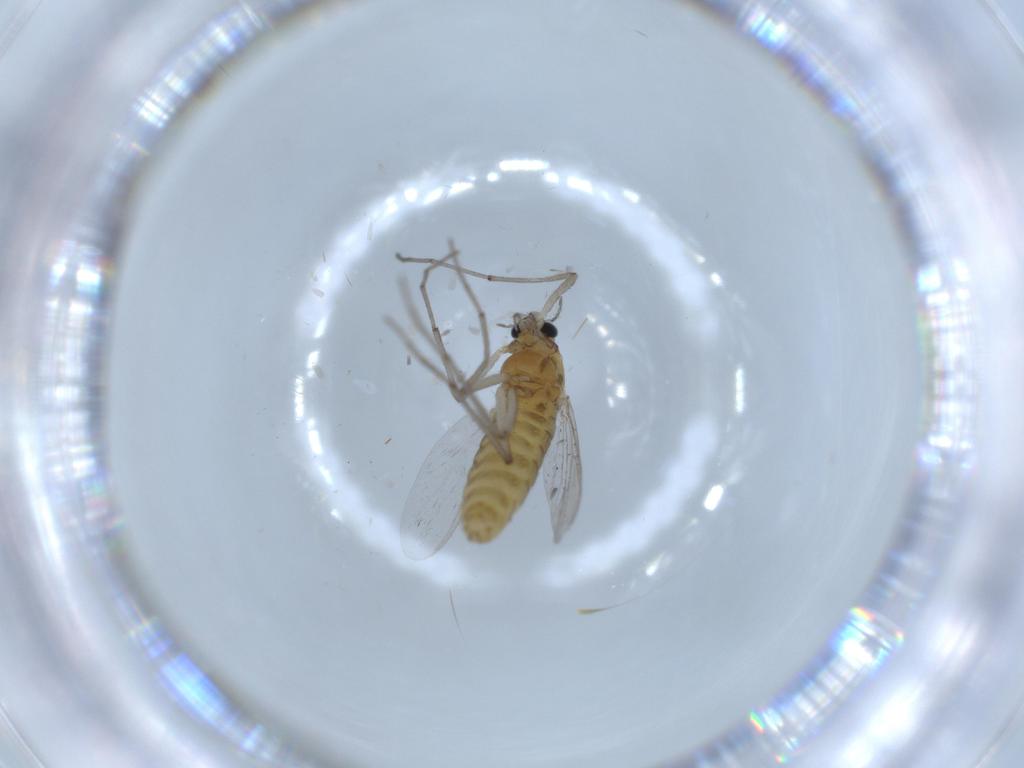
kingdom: Animalia
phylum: Arthropoda
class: Insecta
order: Diptera
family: Chironomidae
